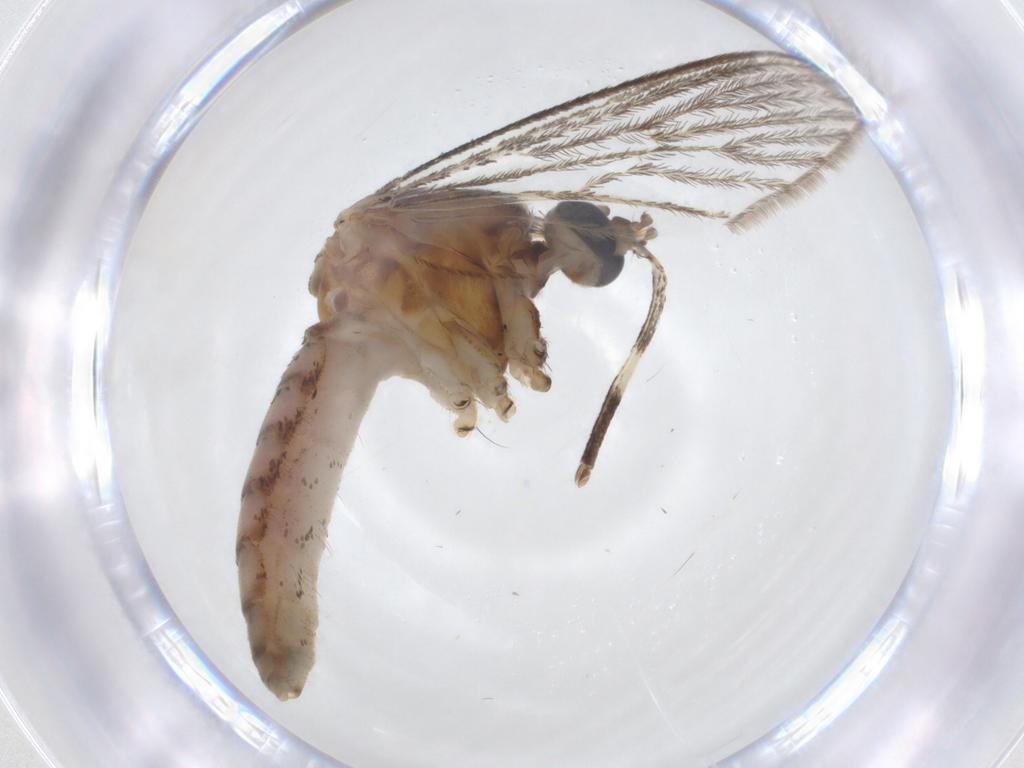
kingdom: Animalia
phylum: Arthropoda
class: Insecta
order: Diptera
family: Chloropidae
